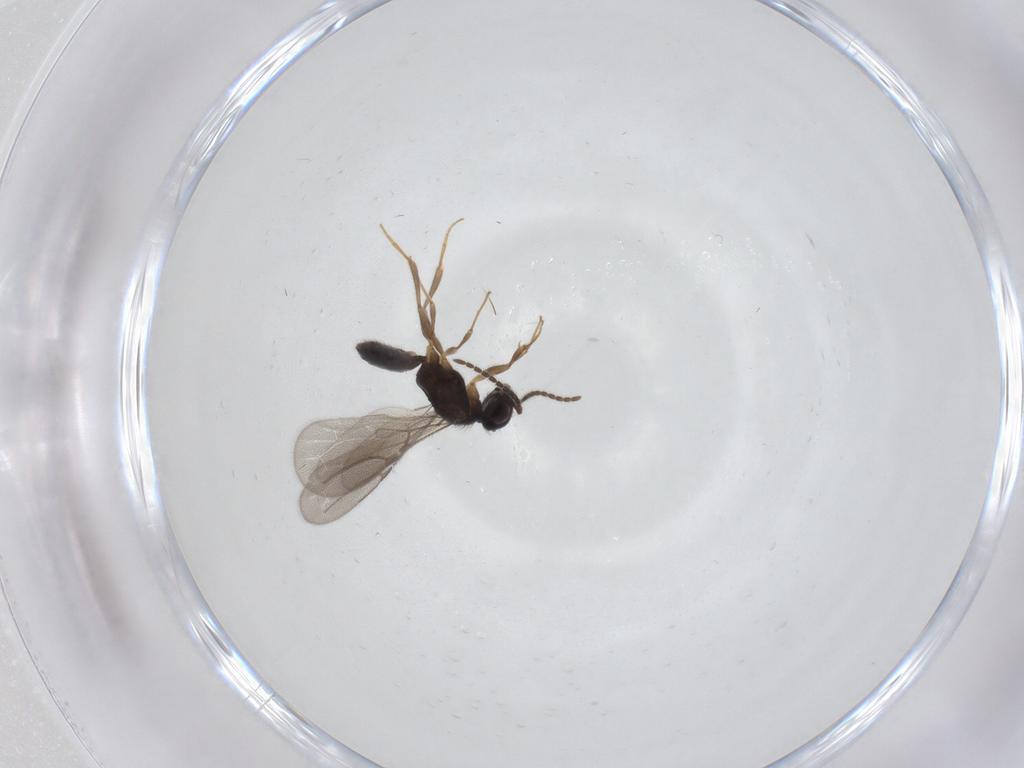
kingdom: Animalia
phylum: Arthropoda
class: Insecta
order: Hymenoptera
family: Bethylidae
